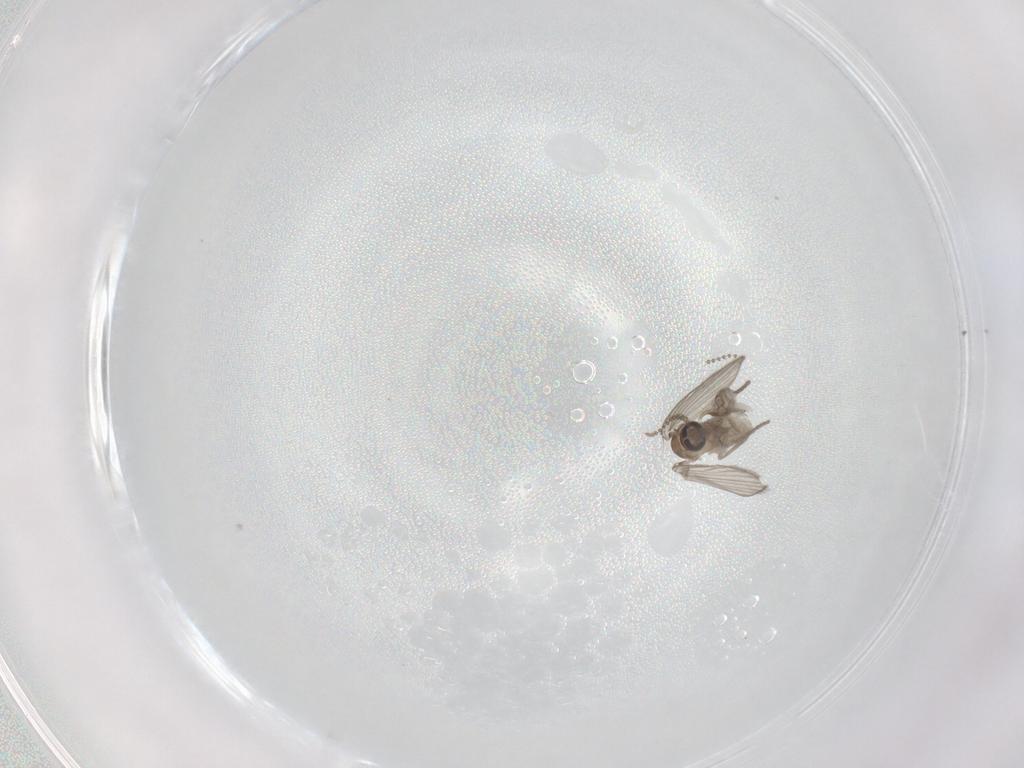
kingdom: Animalia
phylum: Arthropoda
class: Insecta
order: Diptera
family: Psychodidae
